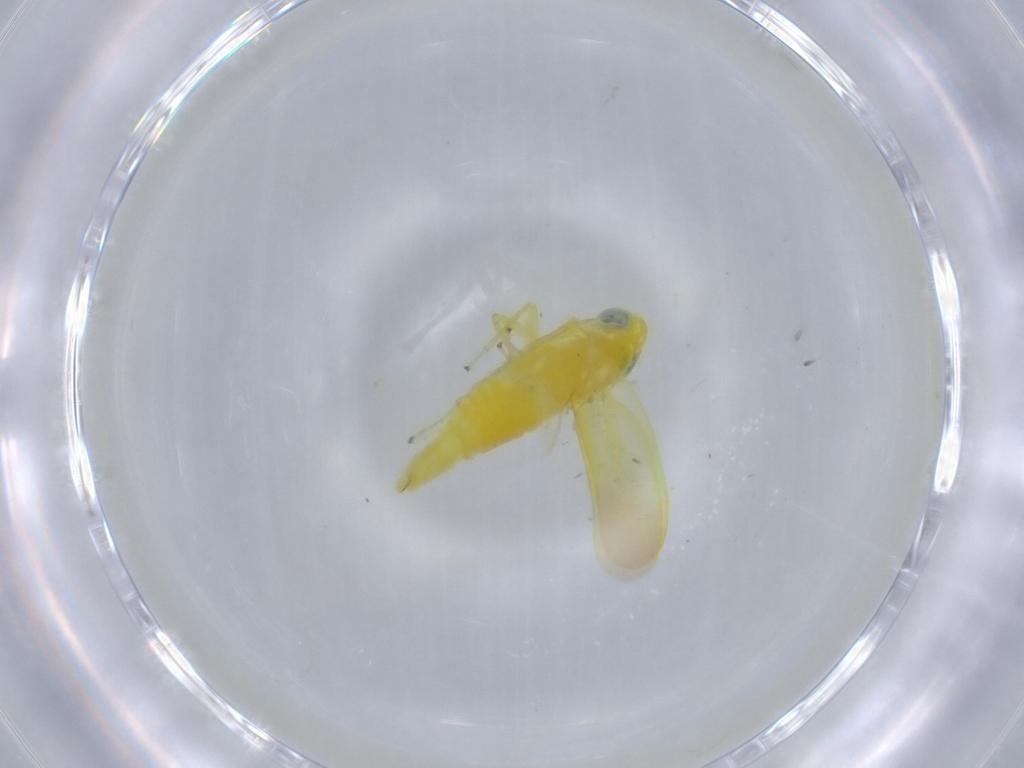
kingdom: Animalia
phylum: Arthropoda
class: Insecta
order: Hemiptera
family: Cicadellidae
